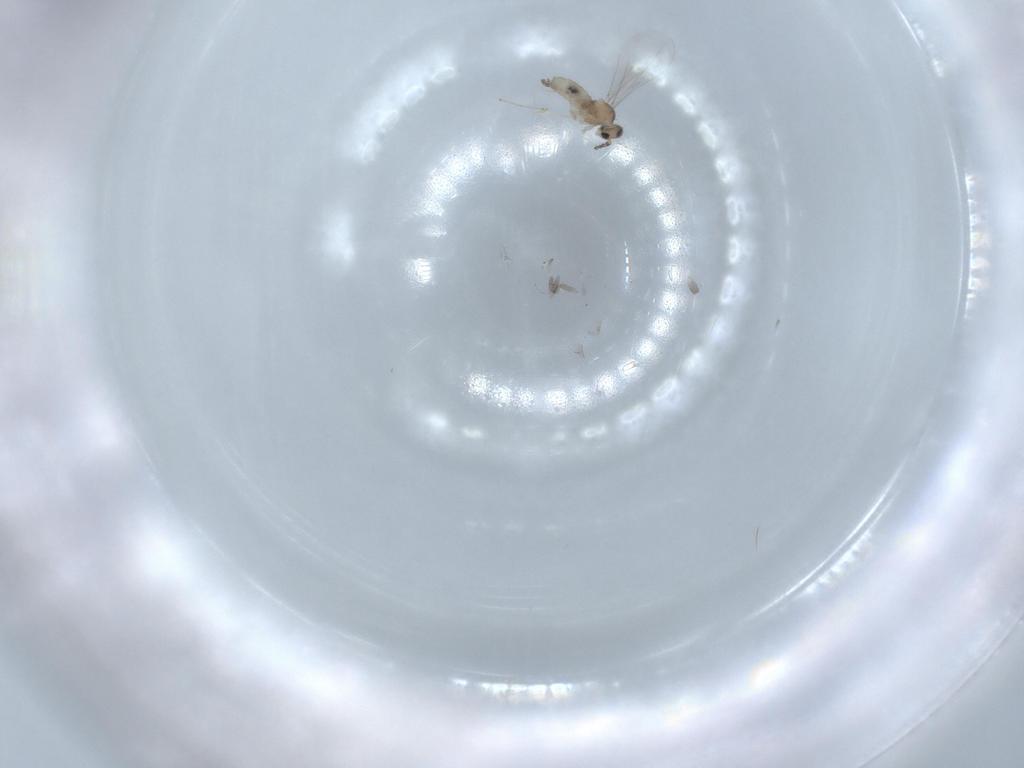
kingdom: Animalia
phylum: Arthropoda
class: Insecta
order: Diptera
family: Cecidomyiidae
